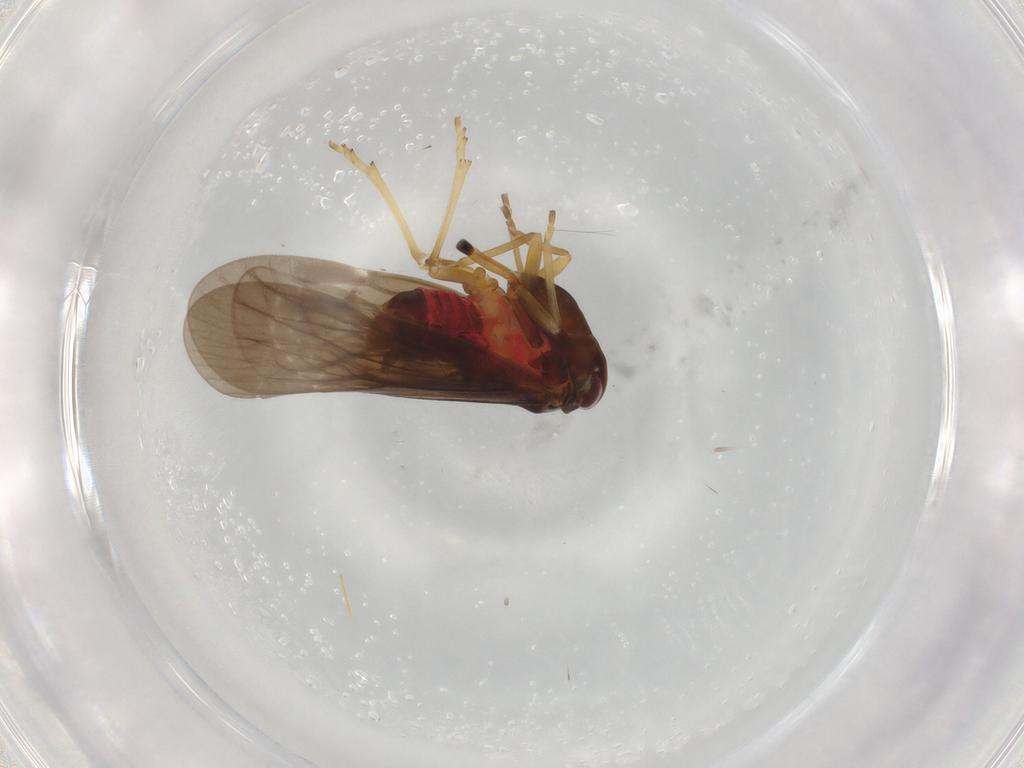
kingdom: Animalia
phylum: Arthropoda
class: Insecta
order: Hemiptera
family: Derbidae
